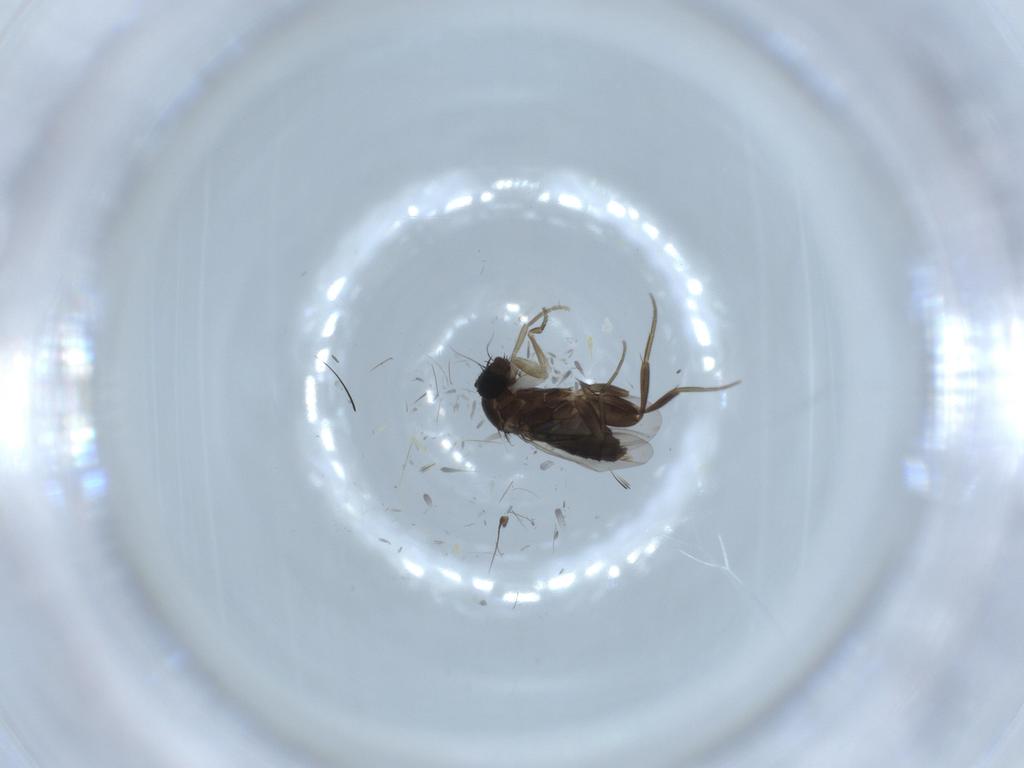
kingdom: Animalia
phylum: Arthropoda
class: Insecta
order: Diptera
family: Phoridae
